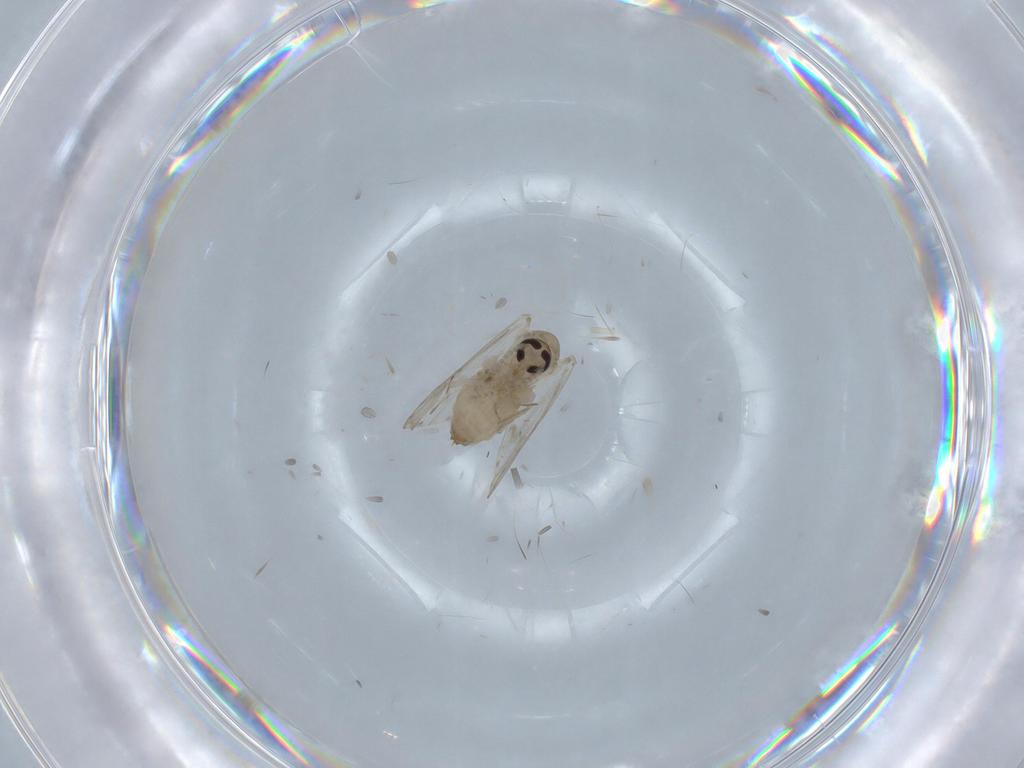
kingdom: Animalia
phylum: Arthropoda
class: Insecta
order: Diptera
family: Psychodidae
